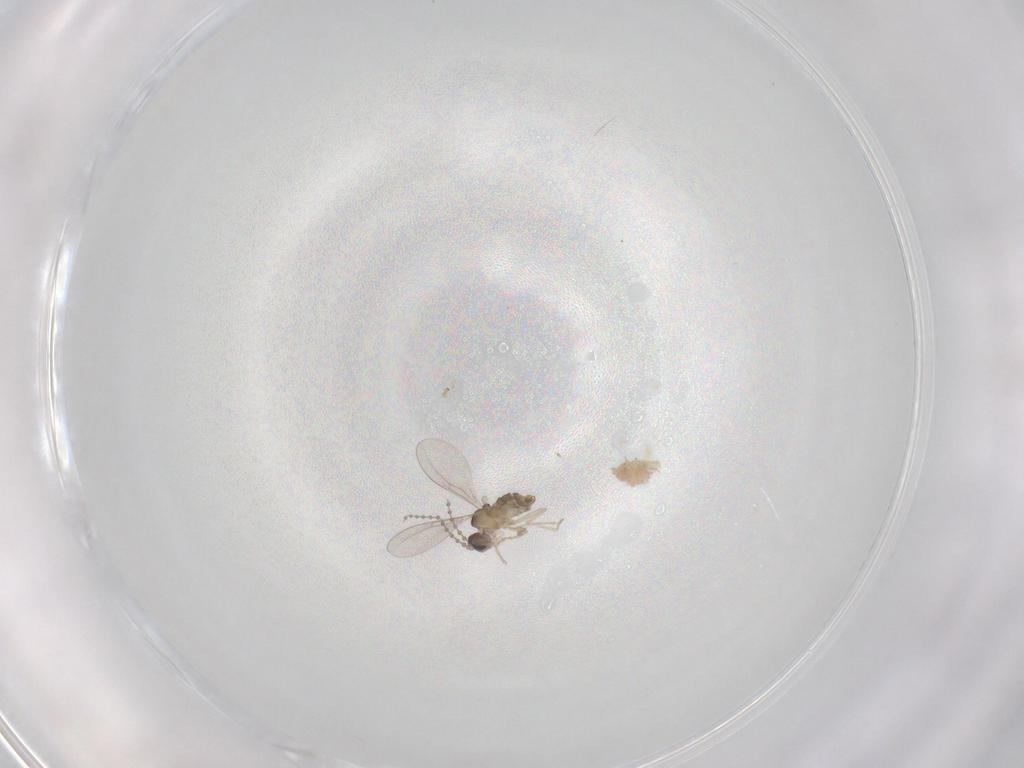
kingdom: Animalia
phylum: Arthropoda
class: Insecta
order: Diptera
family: Cecidomyiidae
